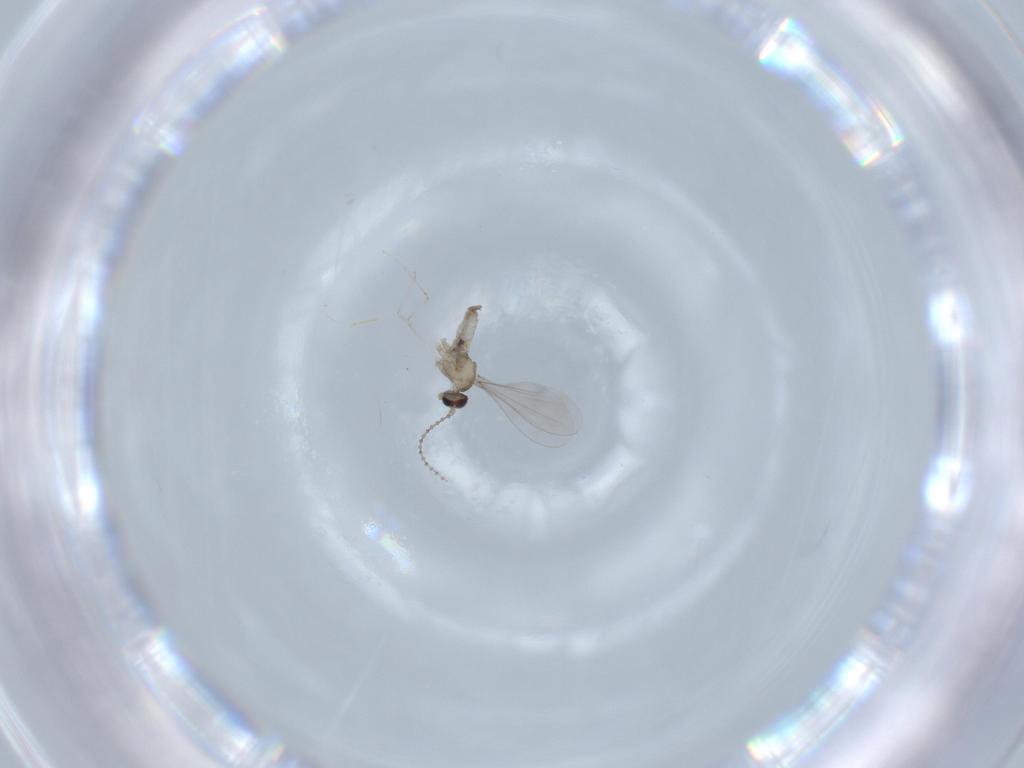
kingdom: Animalia
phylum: Arthropoda
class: Insecta
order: Diptera
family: Cecidomyiidae
